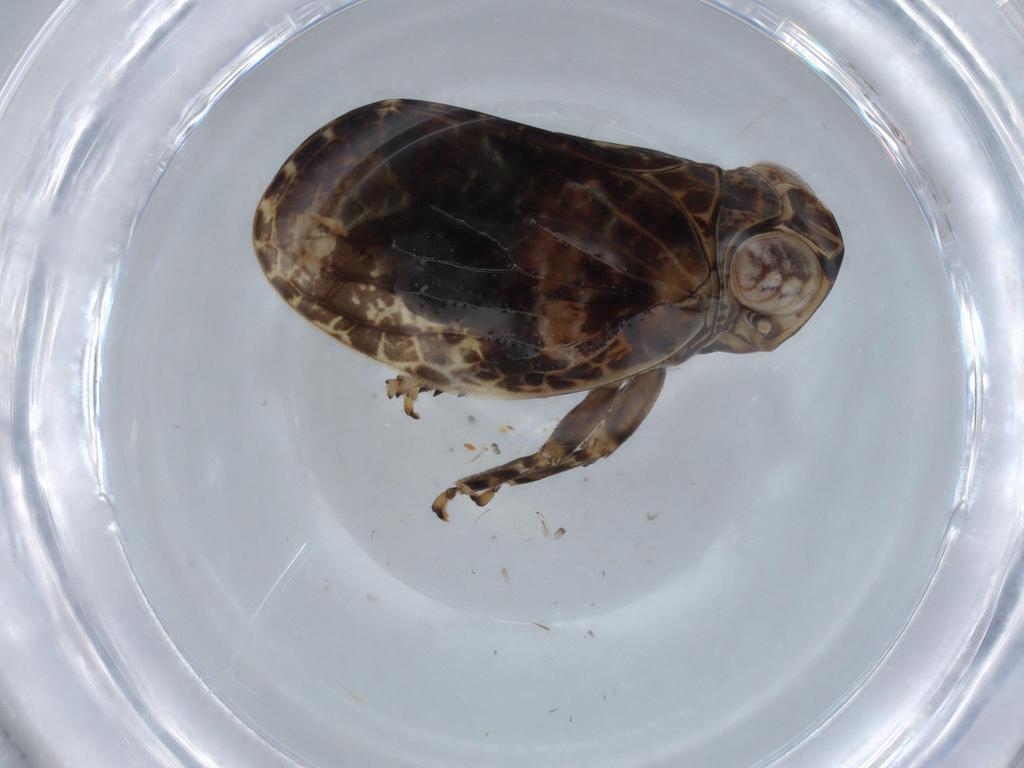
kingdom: Animalia
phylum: Arthropoda
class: Insecta
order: Hemiptera
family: Issidae
